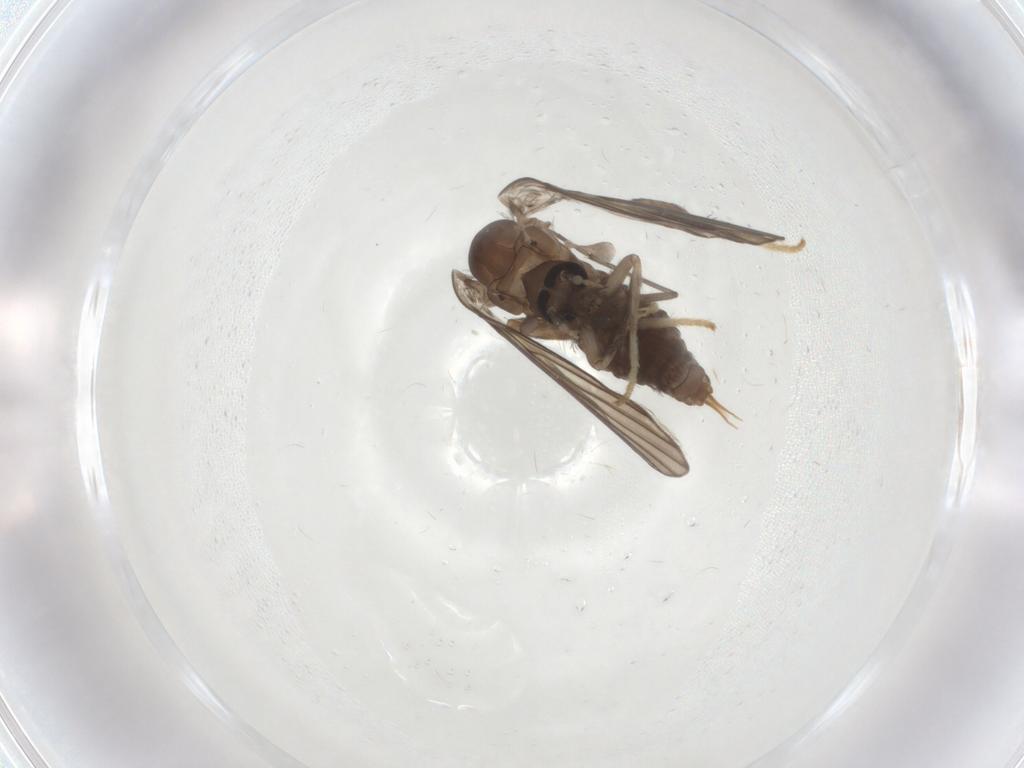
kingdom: Animalia
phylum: Arthropoda
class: Insecta
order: Diptera
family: Psychodidae
